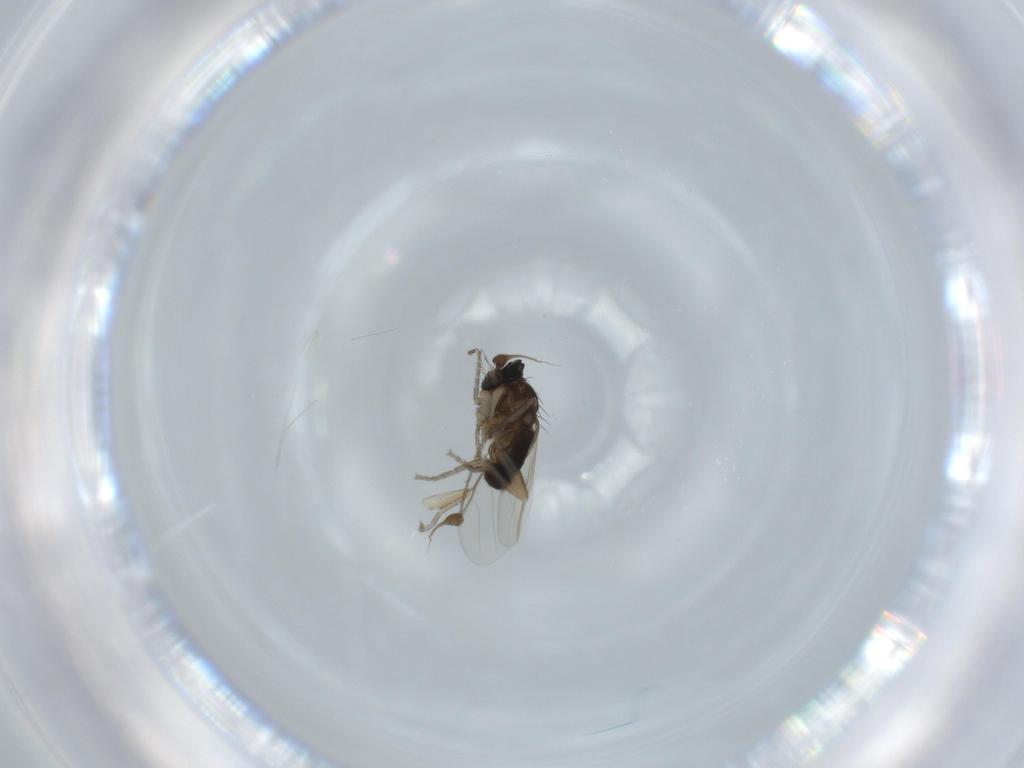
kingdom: Animalia
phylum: Arthropoda
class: Insecta
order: Diptera
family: Phoridae
